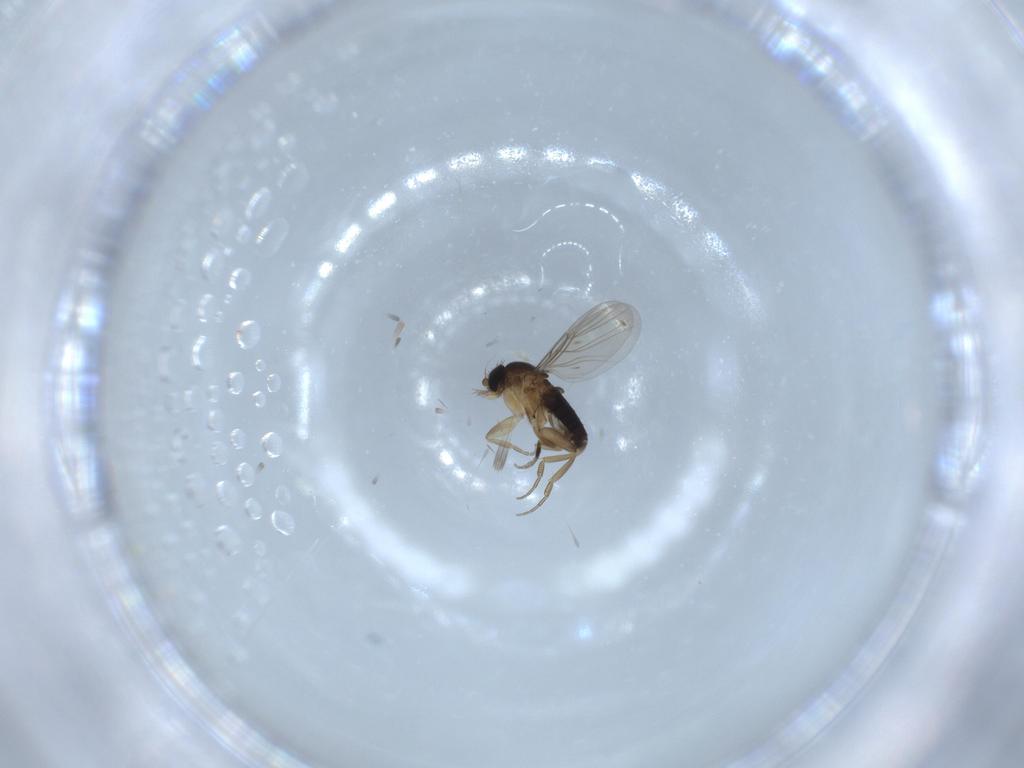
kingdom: Animalia
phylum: Arthropoda
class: Insecta
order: Diptera
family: Phoridae
